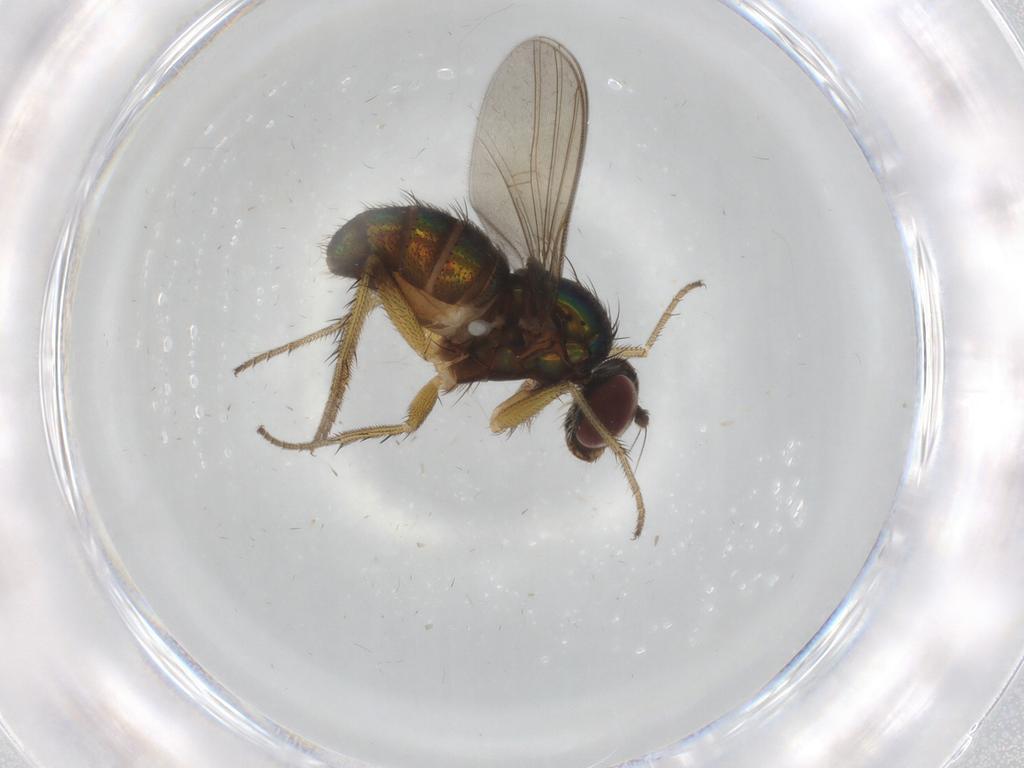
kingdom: Animalia
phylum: Arthropoda
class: Insecta
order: Diptera
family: Dolichopodidae
